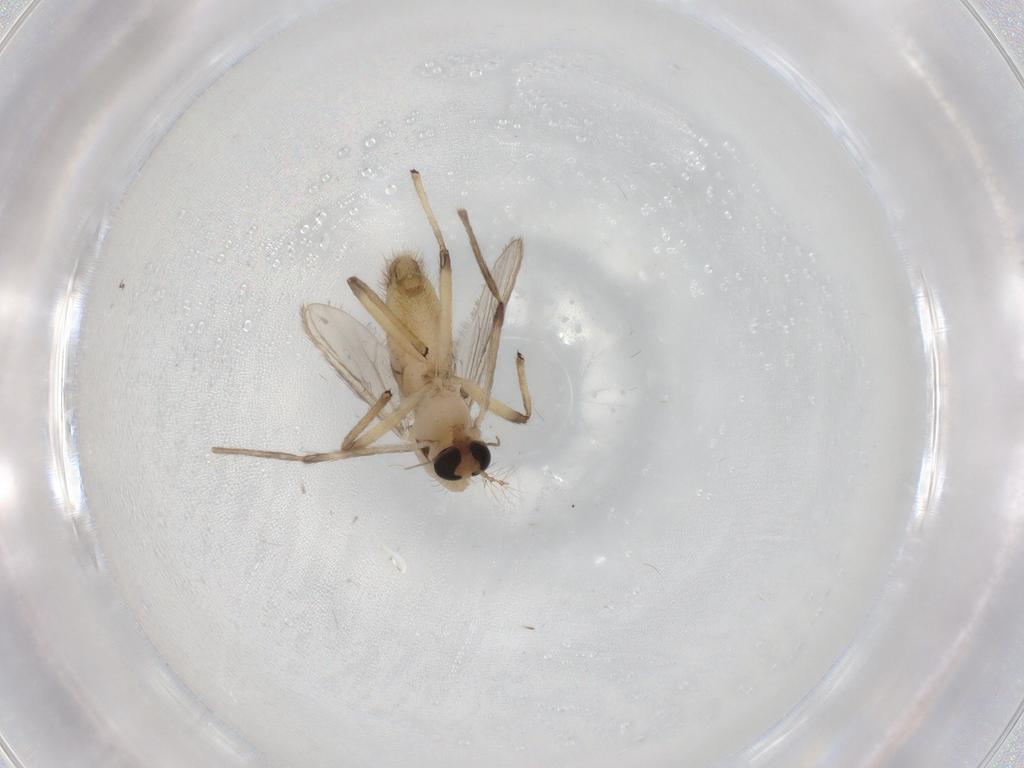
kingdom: Animalia
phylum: Arthropoda
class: Insecta
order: Diptera
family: Chironomidae
